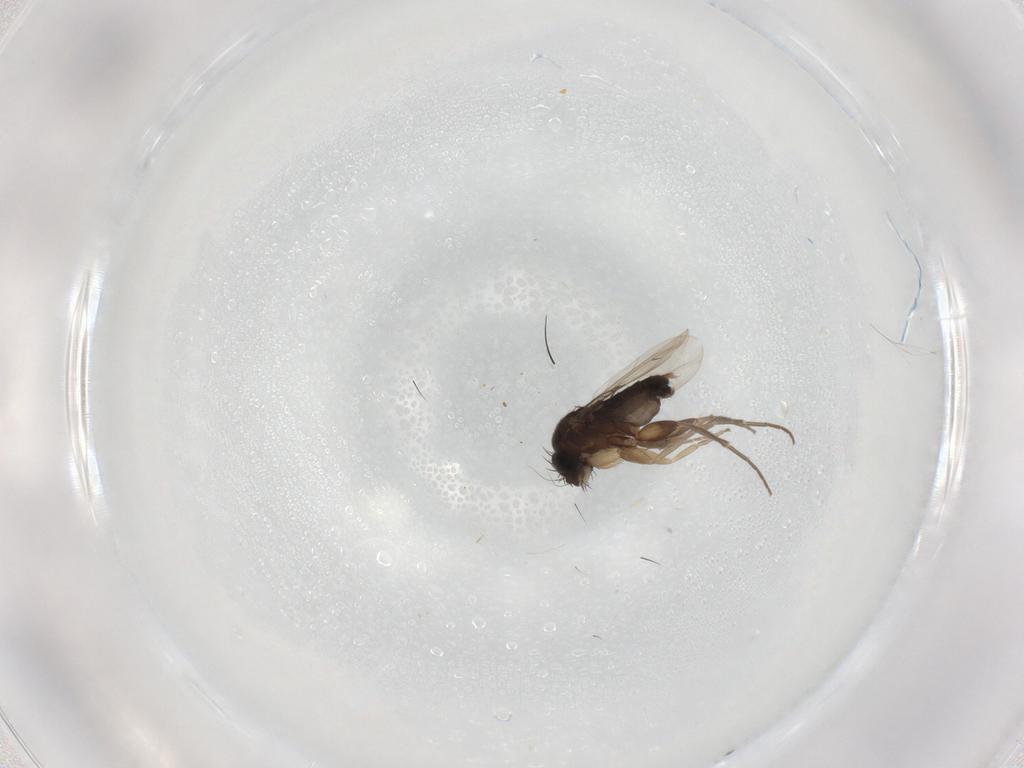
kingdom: Animalia
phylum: Arthropoda
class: Insecta
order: Diptera
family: Phoridae
